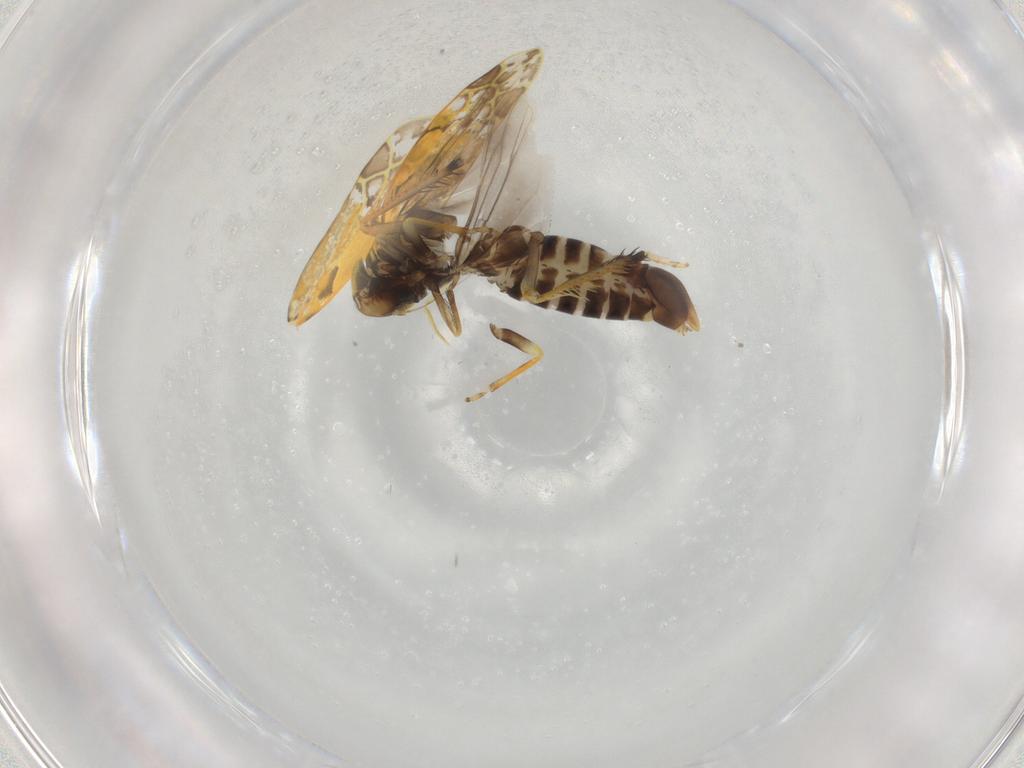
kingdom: Animalia
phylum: Arthropoda
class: Insecta
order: Hemiptera
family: Cicadellidae
